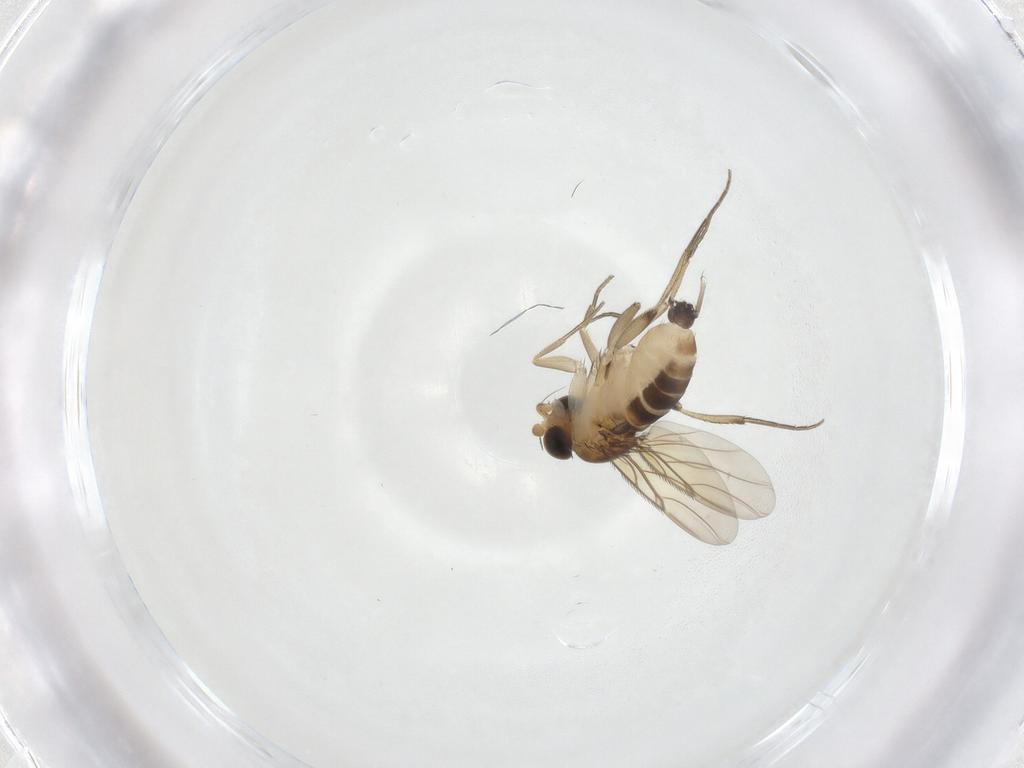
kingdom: Animalia
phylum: Arthropoda
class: Insecta
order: Diptera
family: Phoridae
